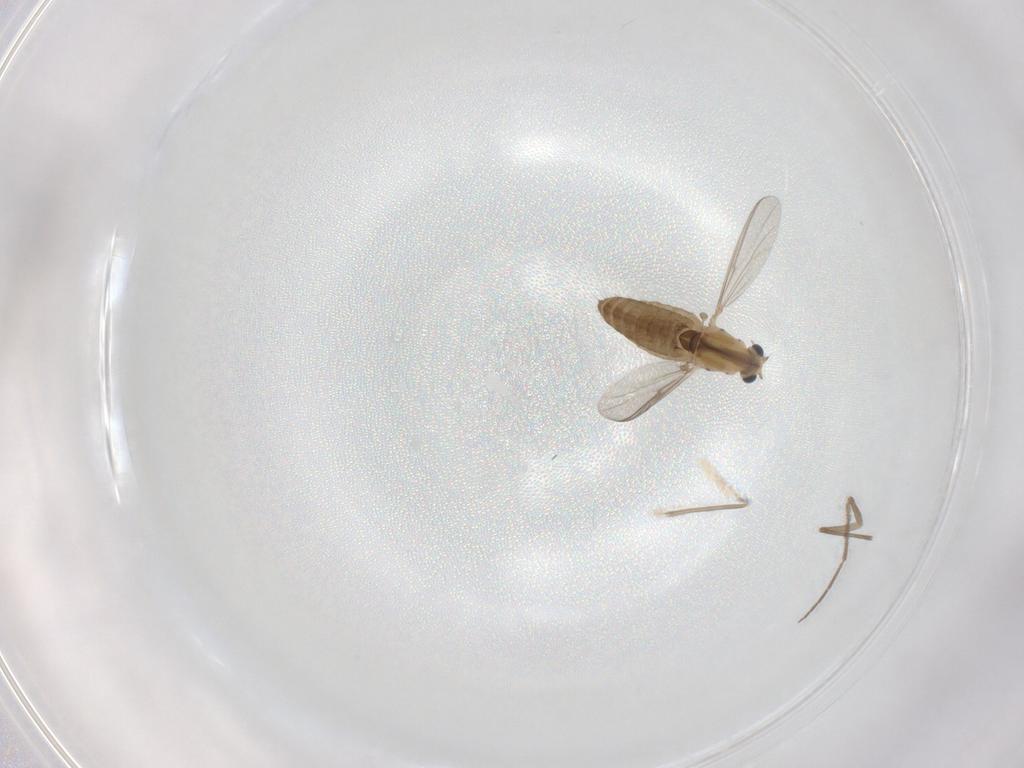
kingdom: Animalia
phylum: Arthropoda
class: Insecta
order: Diptera
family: Chironomidae
